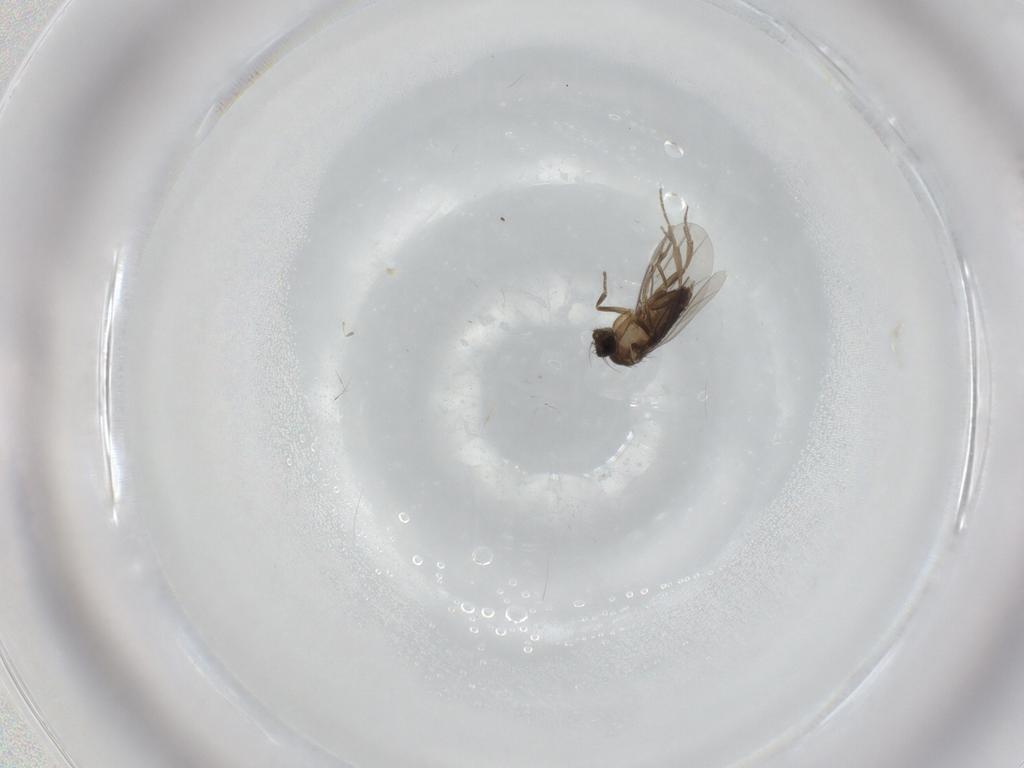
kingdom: Animalia
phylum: Arthropoda
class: Insecta
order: Diptera
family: Phoridae
